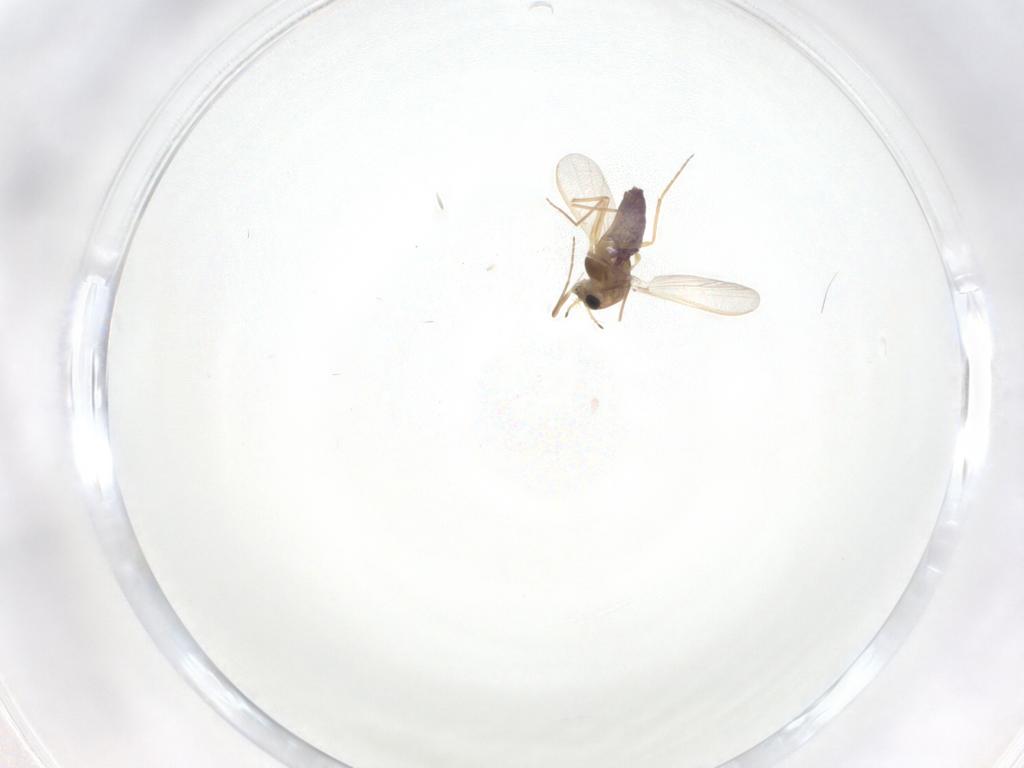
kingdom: Animalia
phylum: Arthropoda
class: Insecta
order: Diptera
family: Chironomidae
